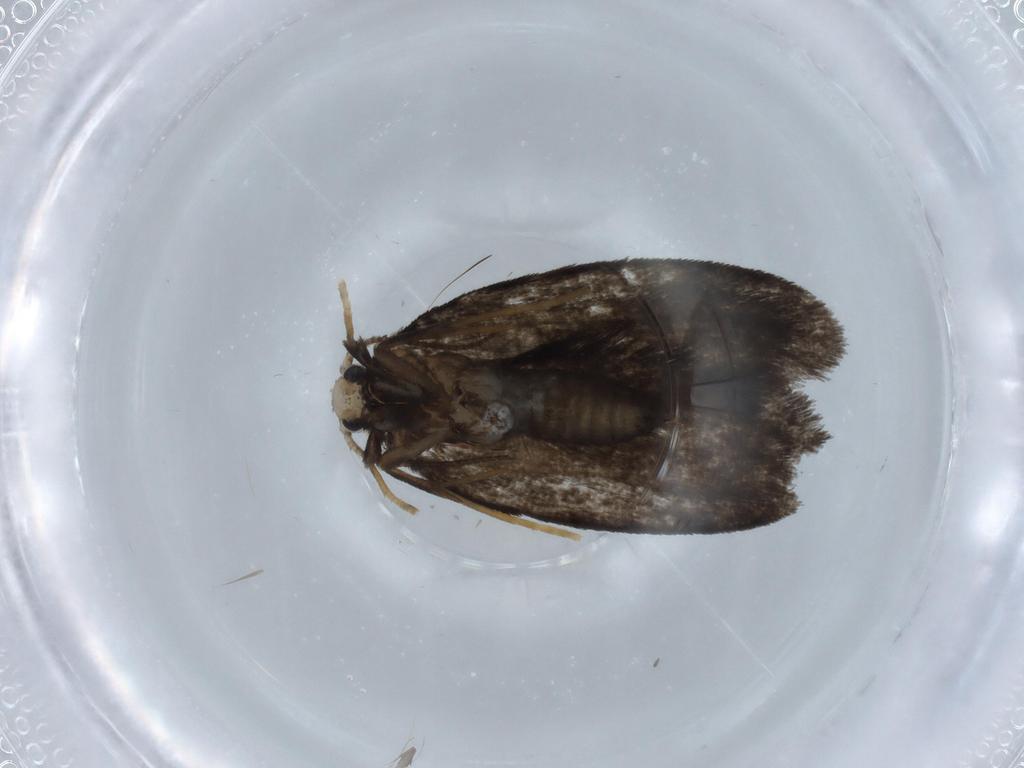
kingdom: Animalia
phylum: Arthropoda
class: Insecta
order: Lepidoptera
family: Psychidae
